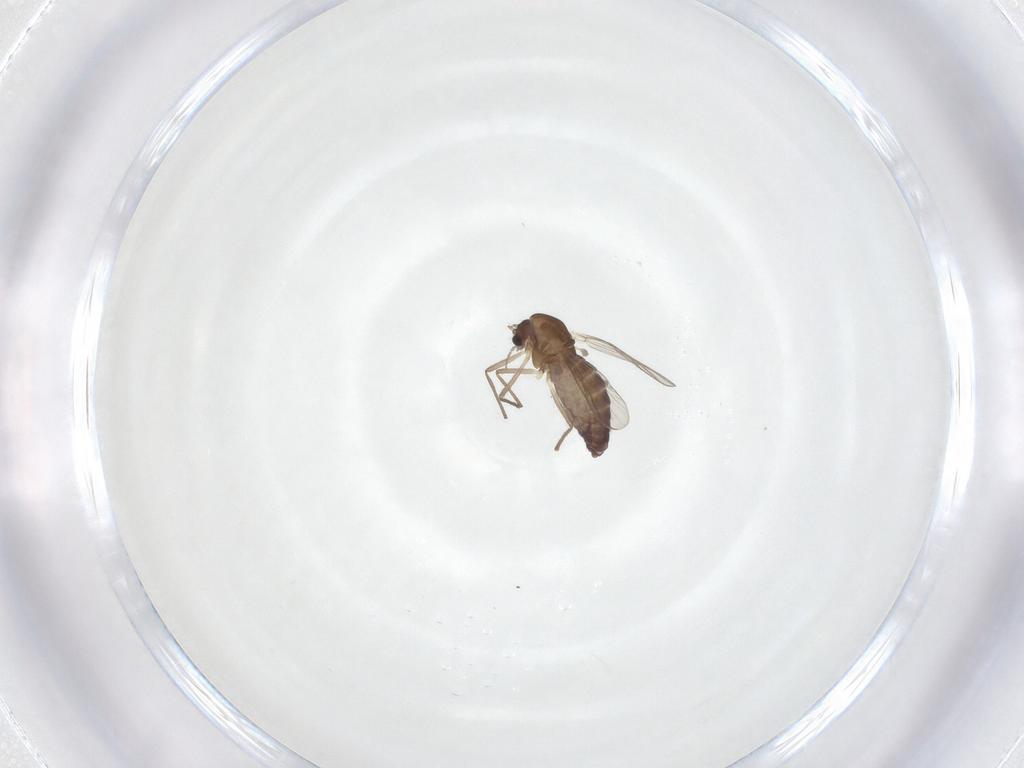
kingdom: Animalia
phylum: Arthropoda
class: Insecta
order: Diptera
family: Chironomidae
